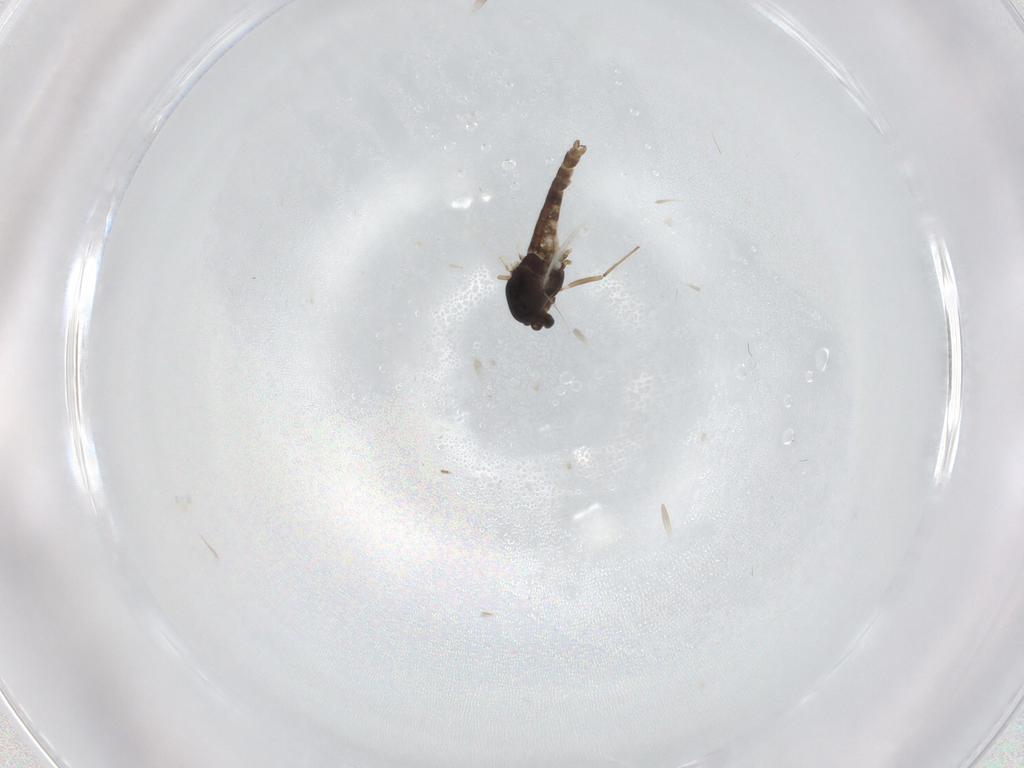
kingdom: Animalia
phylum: Arthropoda
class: Insecta
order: Diptera
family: Chironomidae
